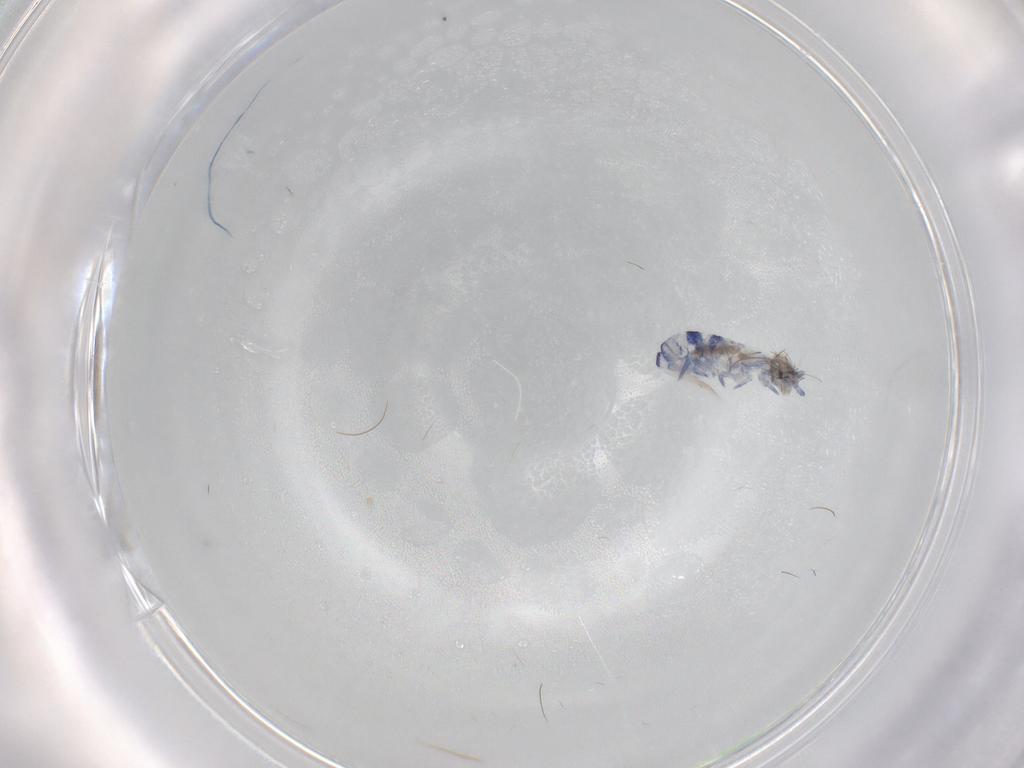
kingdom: Animalia
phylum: Arthropoda
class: Collembola
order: Entomobryomorpha
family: Entomobryidae
